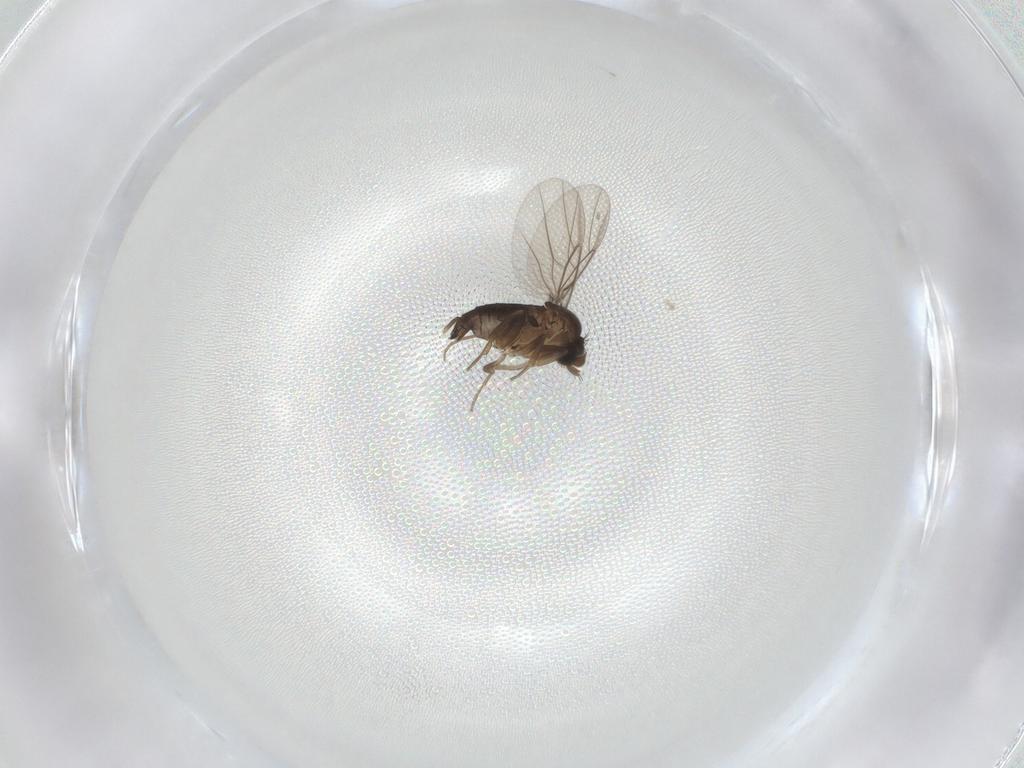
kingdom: Animalia
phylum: Arthropoda
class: Insecta
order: Diptera
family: Phoridae
